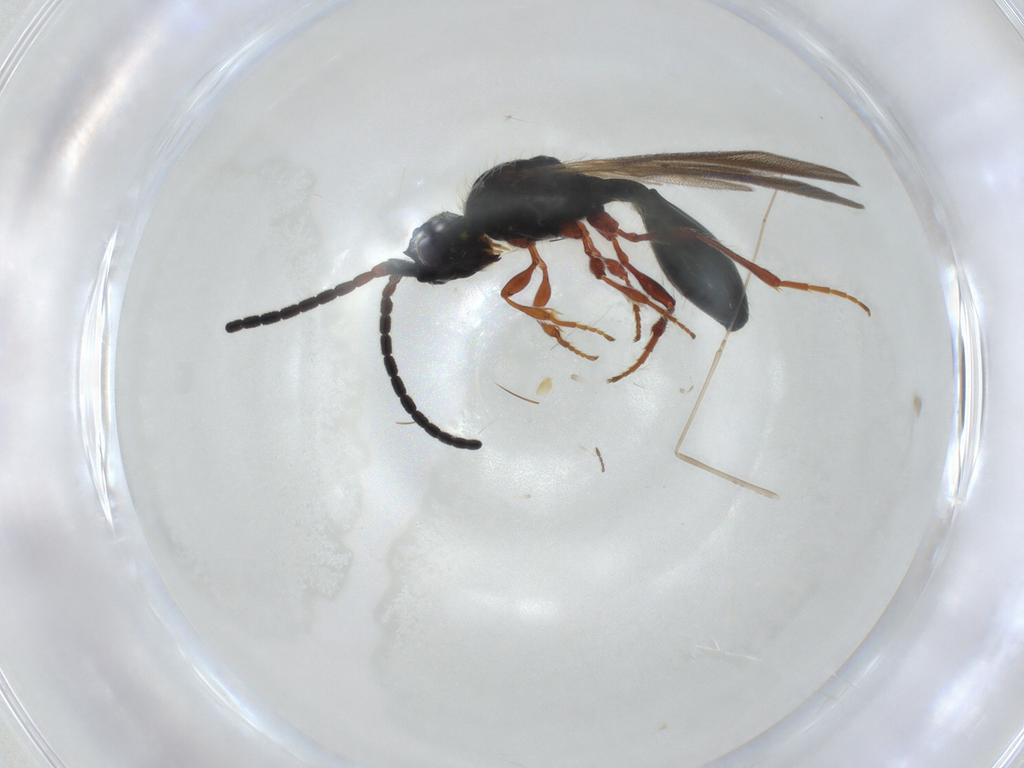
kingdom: Animalia
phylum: Arthropoda
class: Insecta
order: Hymenoptera
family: Diapriidae
